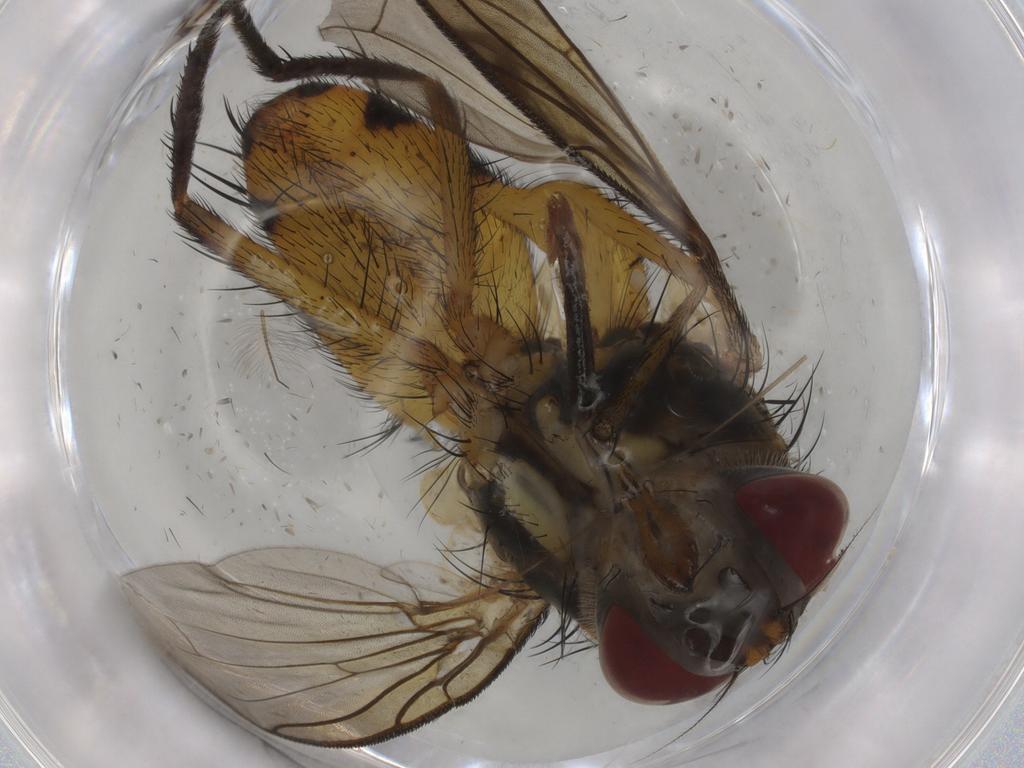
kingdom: Animalia
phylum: Arthropoda
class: Insecta
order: Diptera
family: Limoniidae
